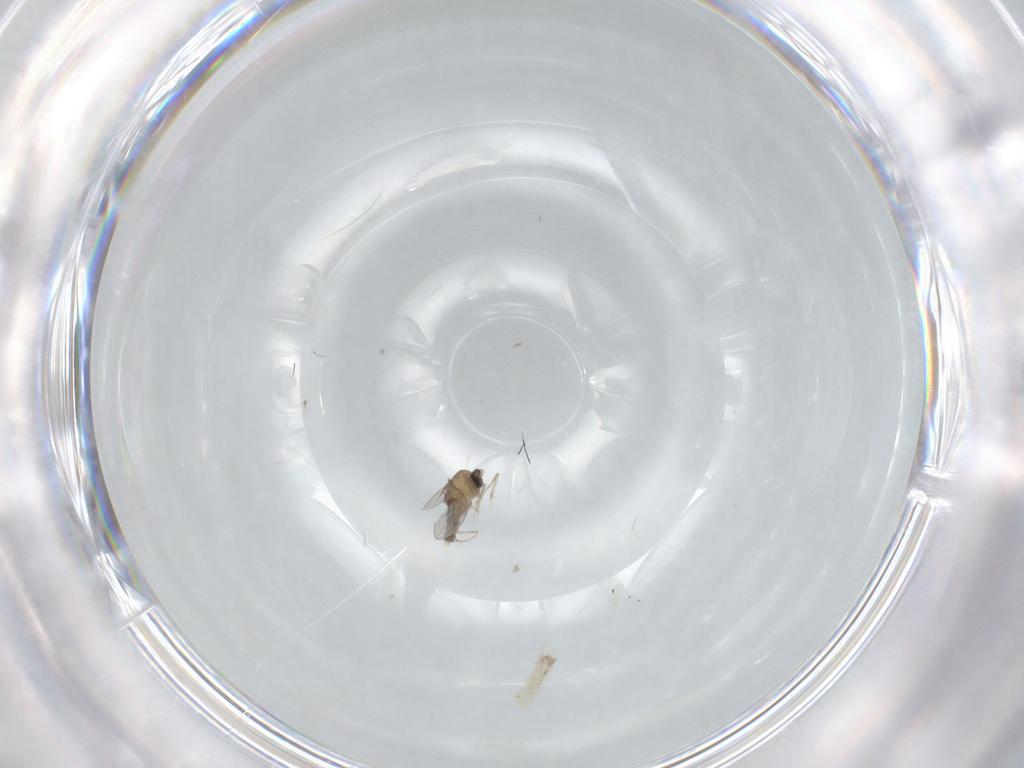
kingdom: Animalia
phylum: Arthropoda
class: Insecta
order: Diptera
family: Cecidomyiidae
